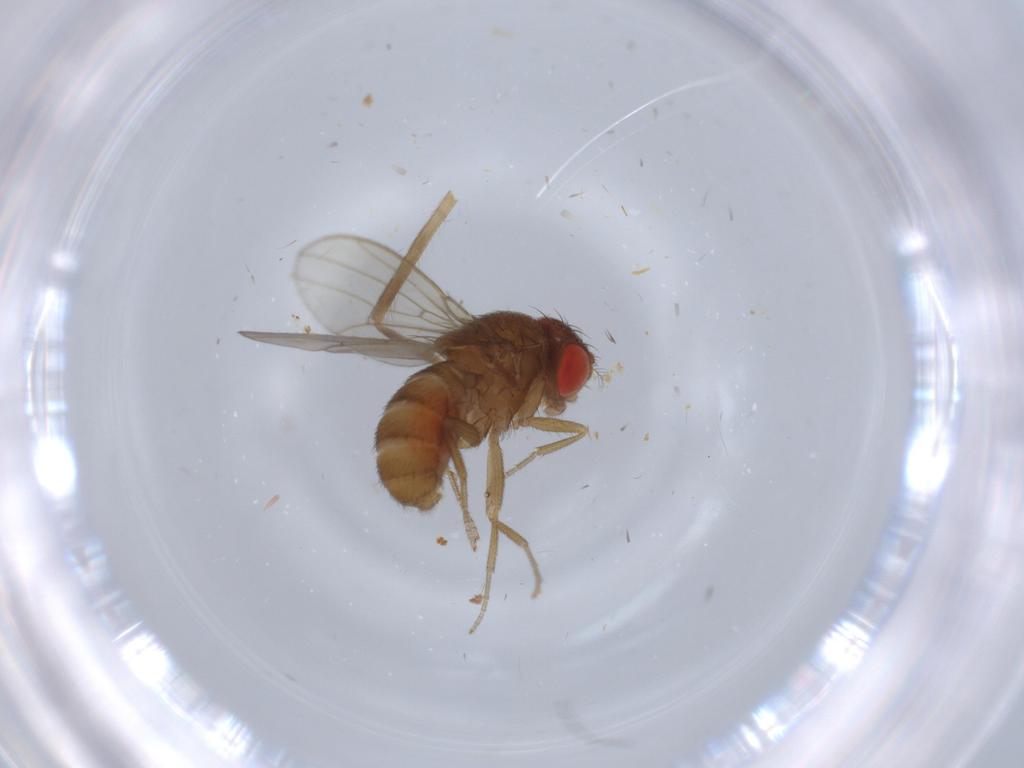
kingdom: Animalia
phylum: Arthropoda
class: Insecta
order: Diptera
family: Drosophilidae
